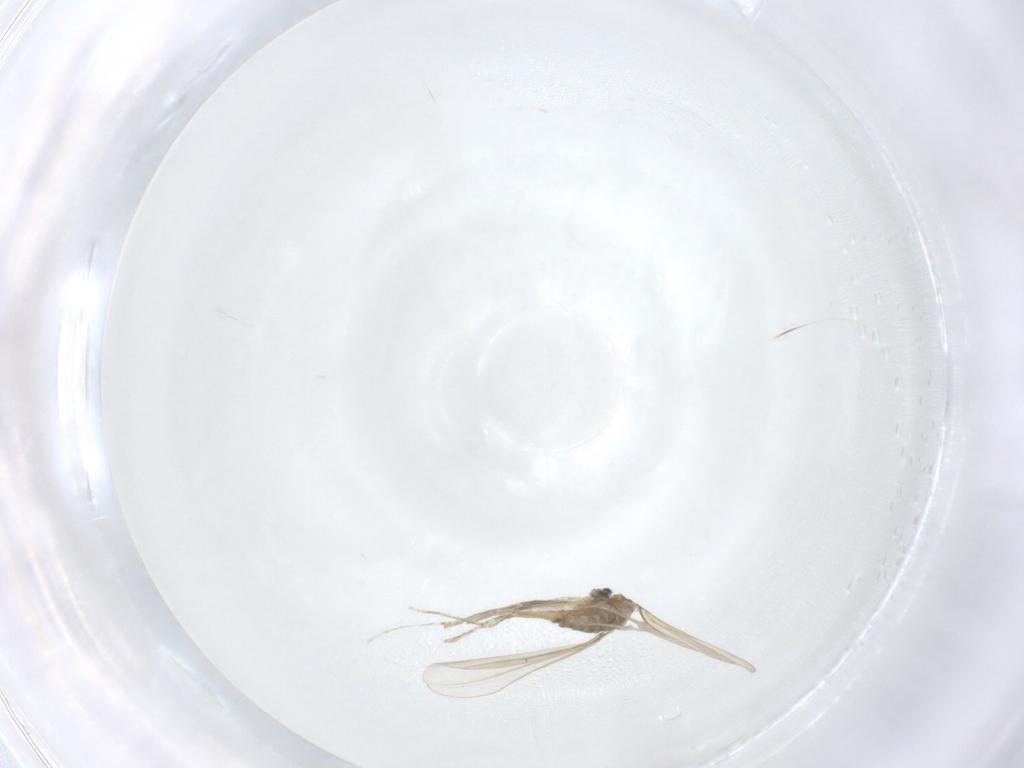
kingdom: Animalia
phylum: Arthropoda
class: Insecta
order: Diptera
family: Cecidomyiidae
